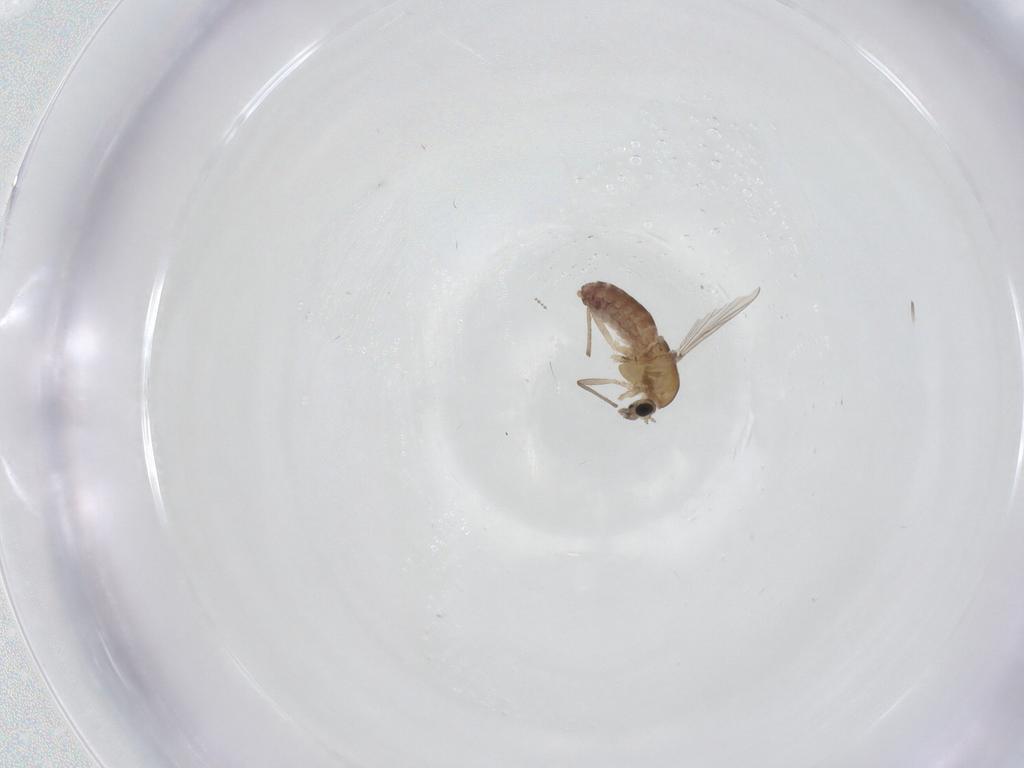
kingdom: Animalia
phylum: Arthropoda
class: Insecta
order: Diptera
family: Chironomidae
